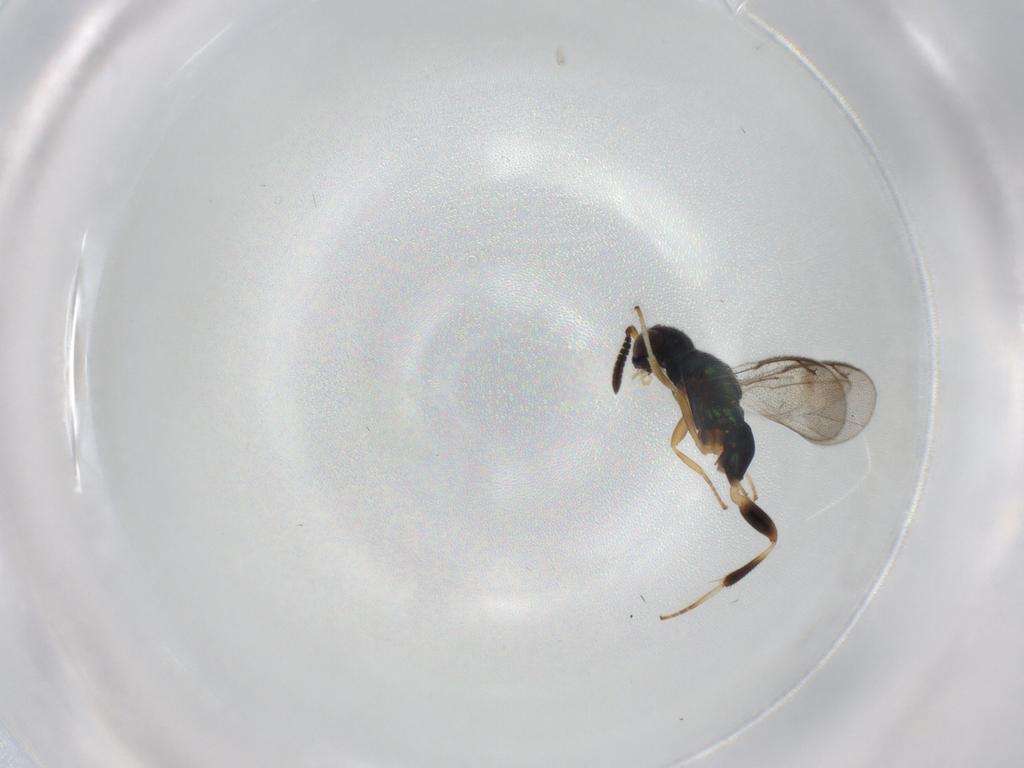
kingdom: Animalia
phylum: Arthropoda
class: Insecta
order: Hymenoptera
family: Cleonyminae
